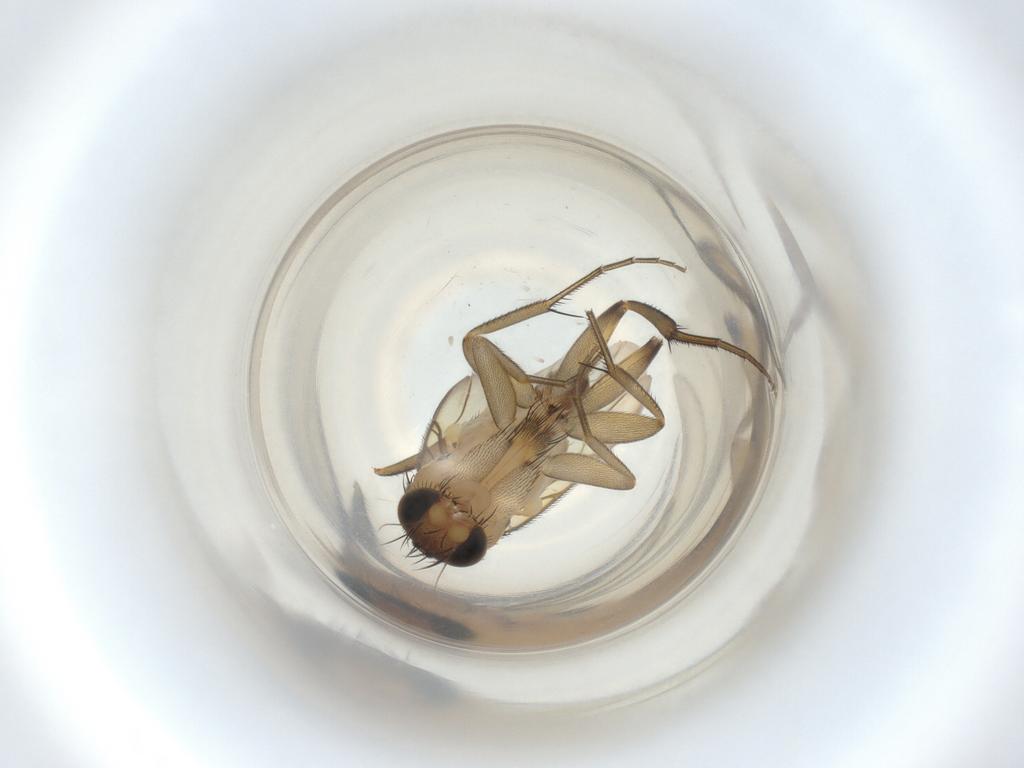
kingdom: Animalia
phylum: Arthropoda
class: Insecta
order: Diptera
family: Phoridae
